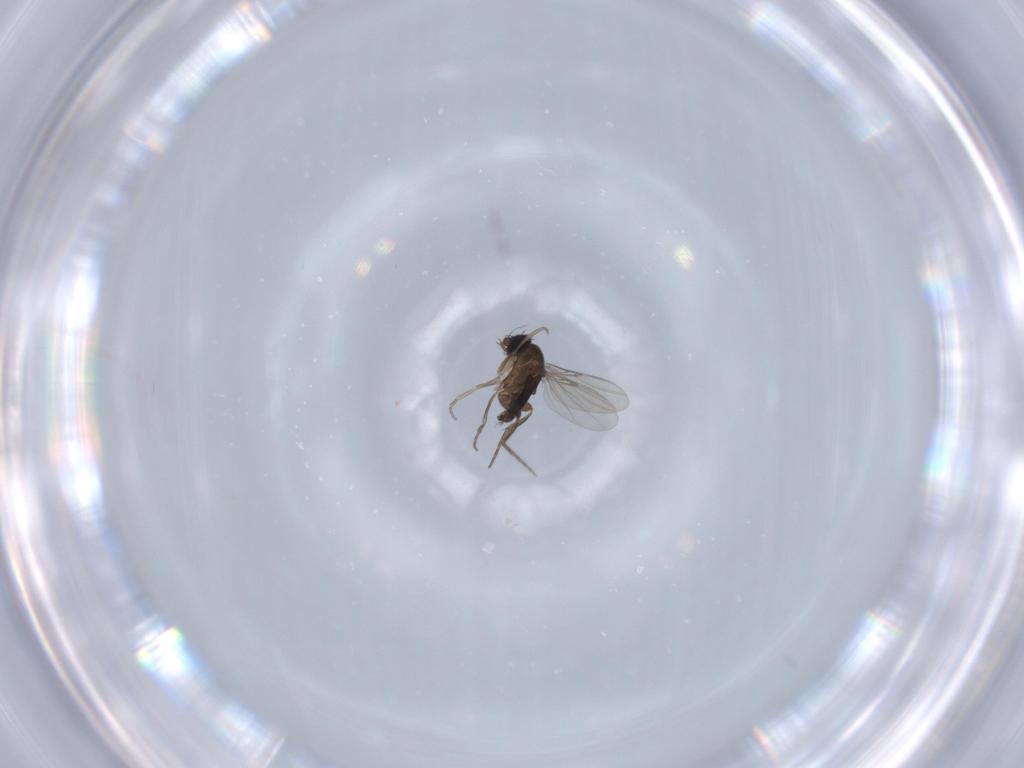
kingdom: Animalia
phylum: Arthropoda
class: Insecta
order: Diptera
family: Phoridae
